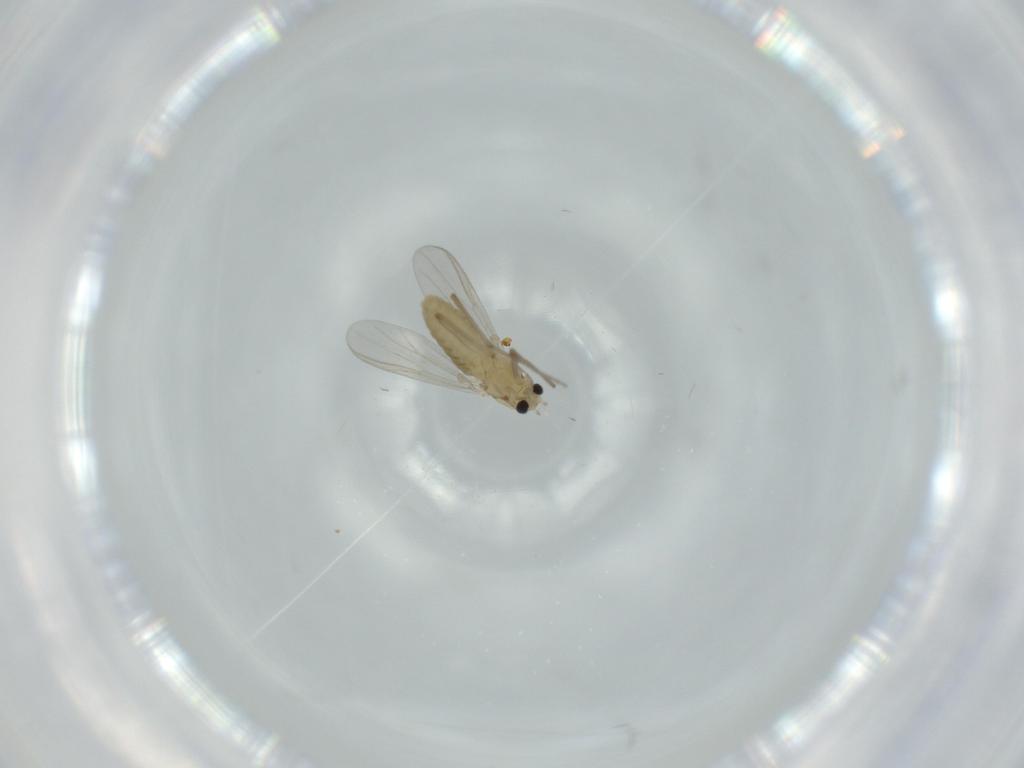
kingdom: Animalia
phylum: Arthropoda
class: Insecta
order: Diptera
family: Chironomidae
